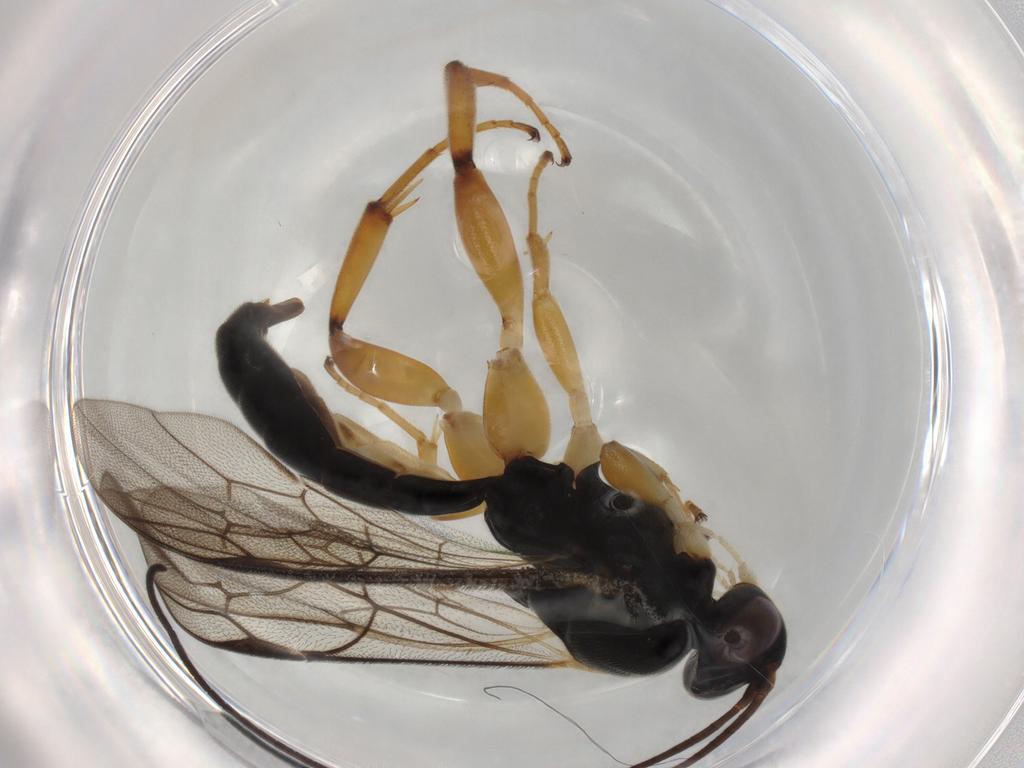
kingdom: Animalia
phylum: Arthropoda
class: Insecta
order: Hymenoptera
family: Ichneumonidae
